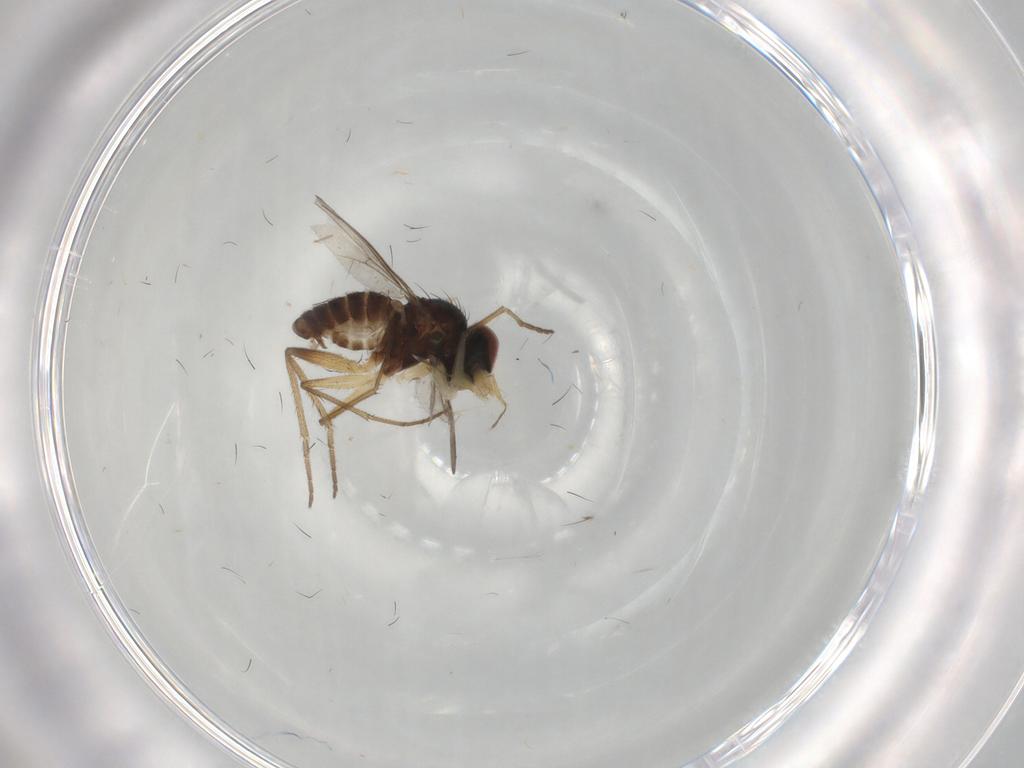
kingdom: Animalia
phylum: Arthropoda
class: Insecta
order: Diptera
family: Dolichopodidae
